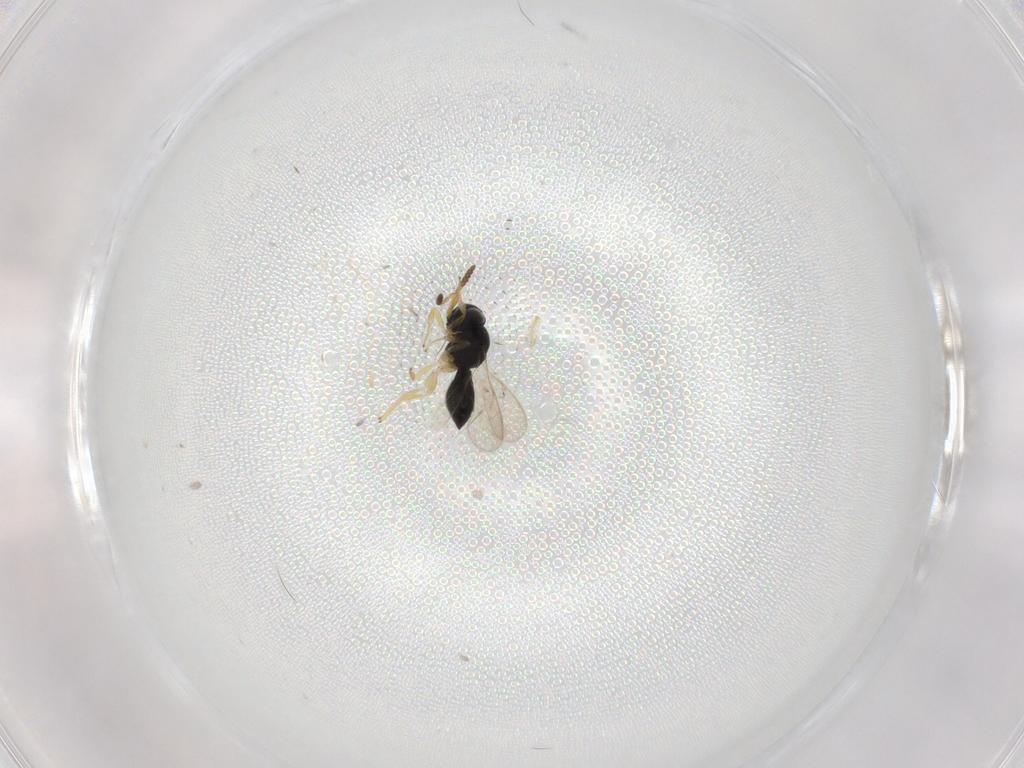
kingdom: Animalia
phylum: Arthropoda
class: Insecta
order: Hymenoptera
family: Scelionidae
